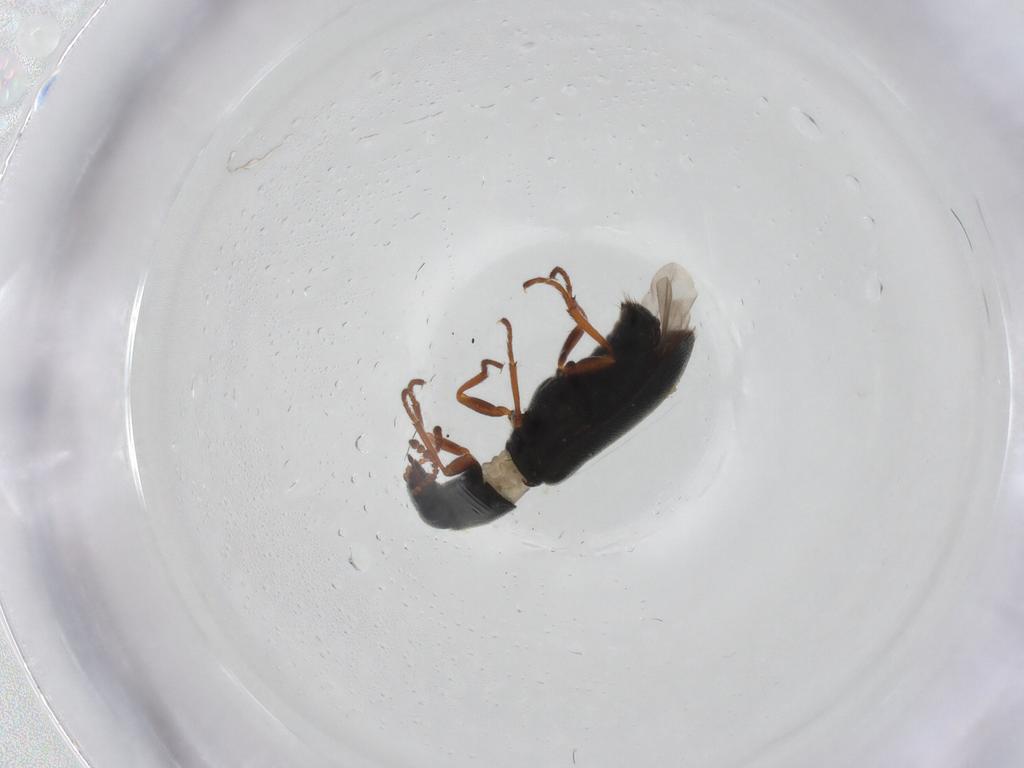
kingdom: Animalia
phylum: Arthropoda
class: Insecta
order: Coleoptera
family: Melyridae
